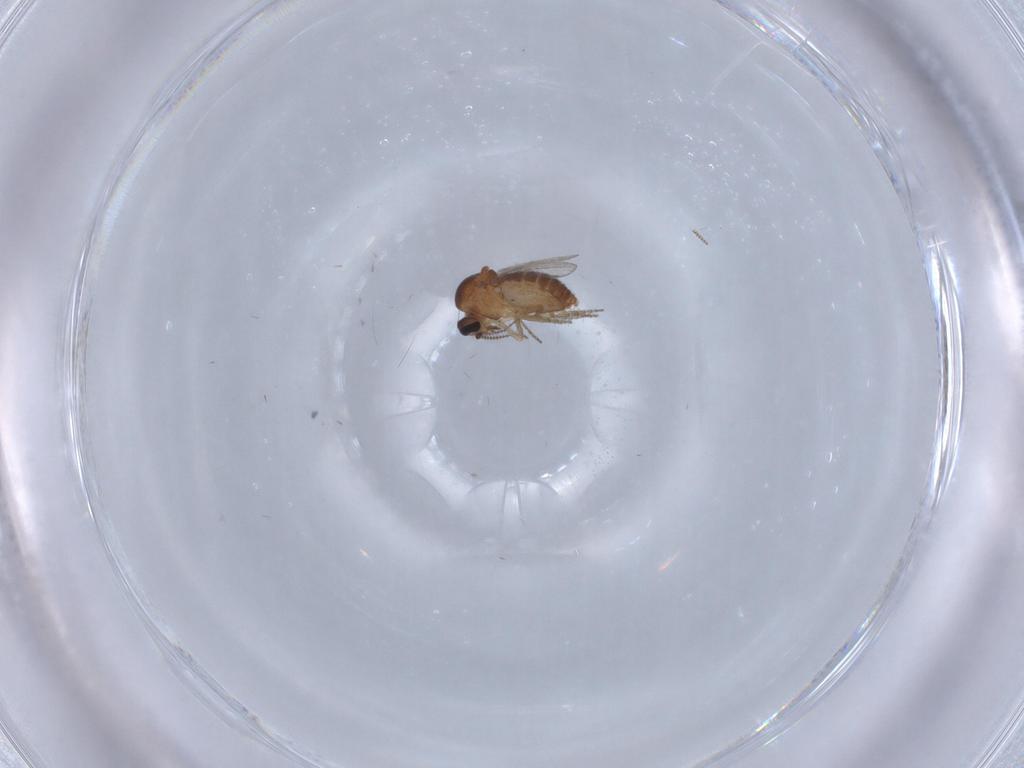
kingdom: Animalia
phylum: Arthropoda
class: Insecta
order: Diptera
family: Ceratopogonidae
